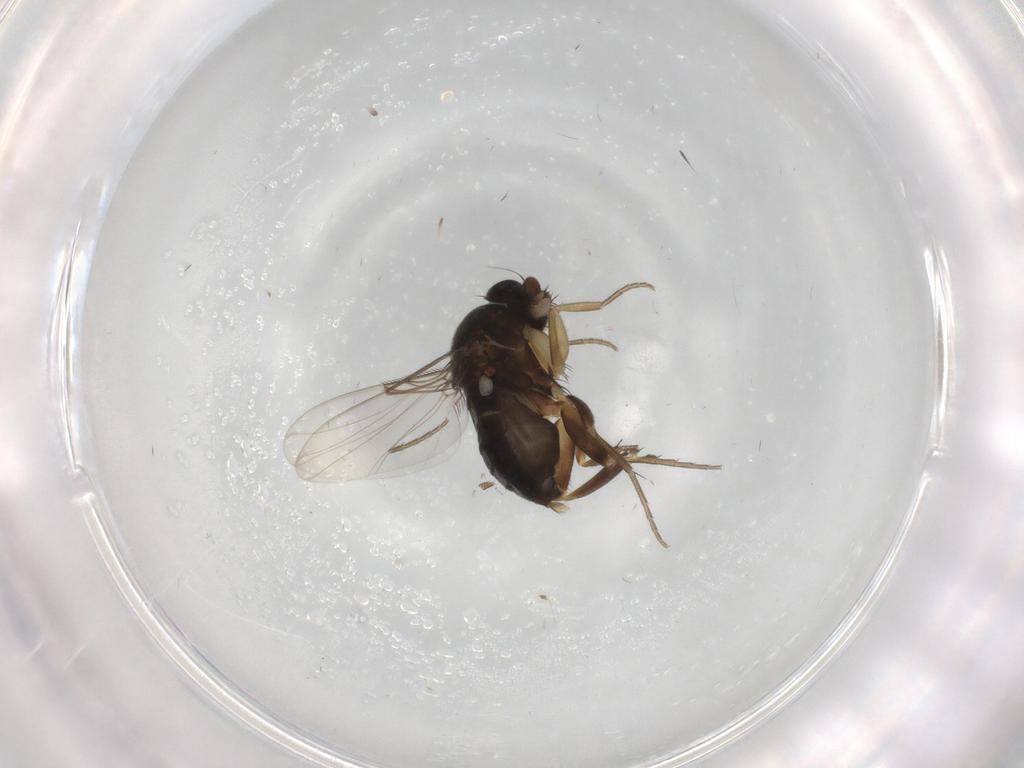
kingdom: Animalia
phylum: Arthropoda
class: Insecta
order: Diptera
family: Phoridae
